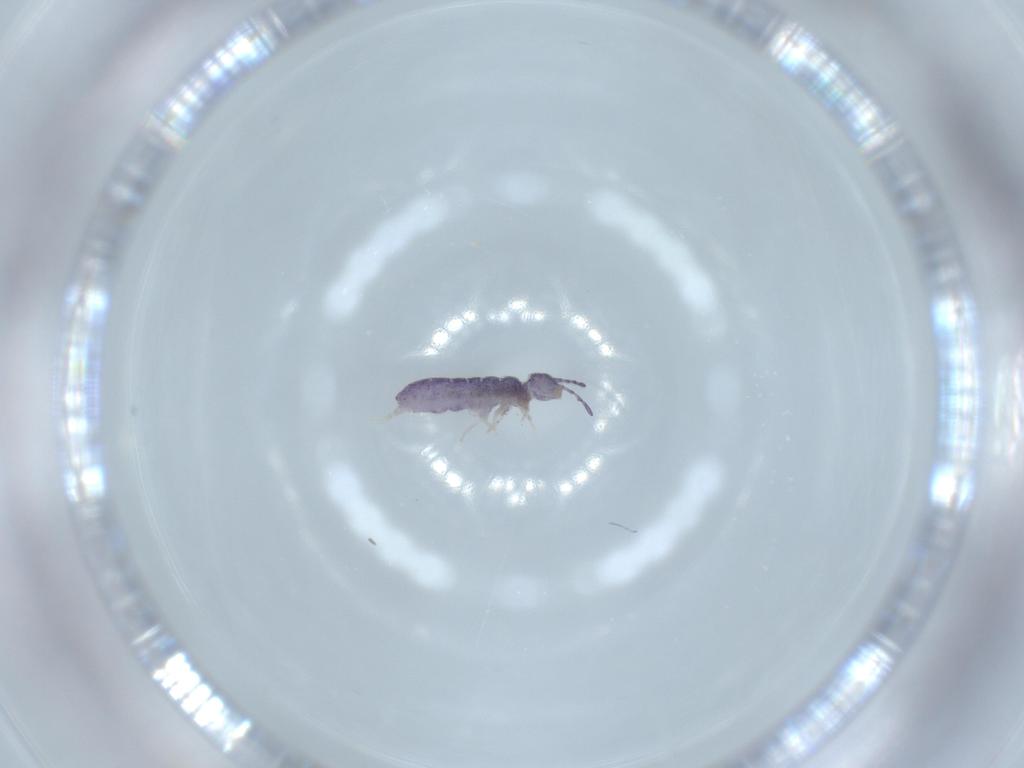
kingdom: Animalia
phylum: Arthropoda
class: Collembola
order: Entomobryomorpha
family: Isotomidae
